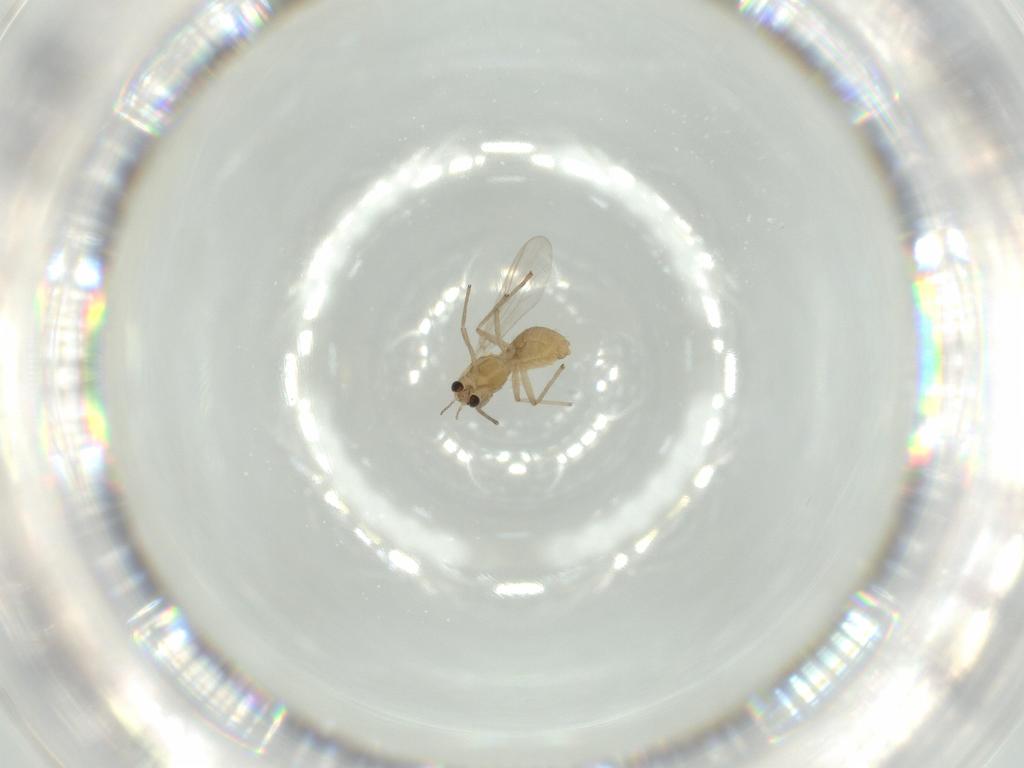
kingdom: Animalia
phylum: Arthropoda
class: Insecta
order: Diptera
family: Chironomidae
